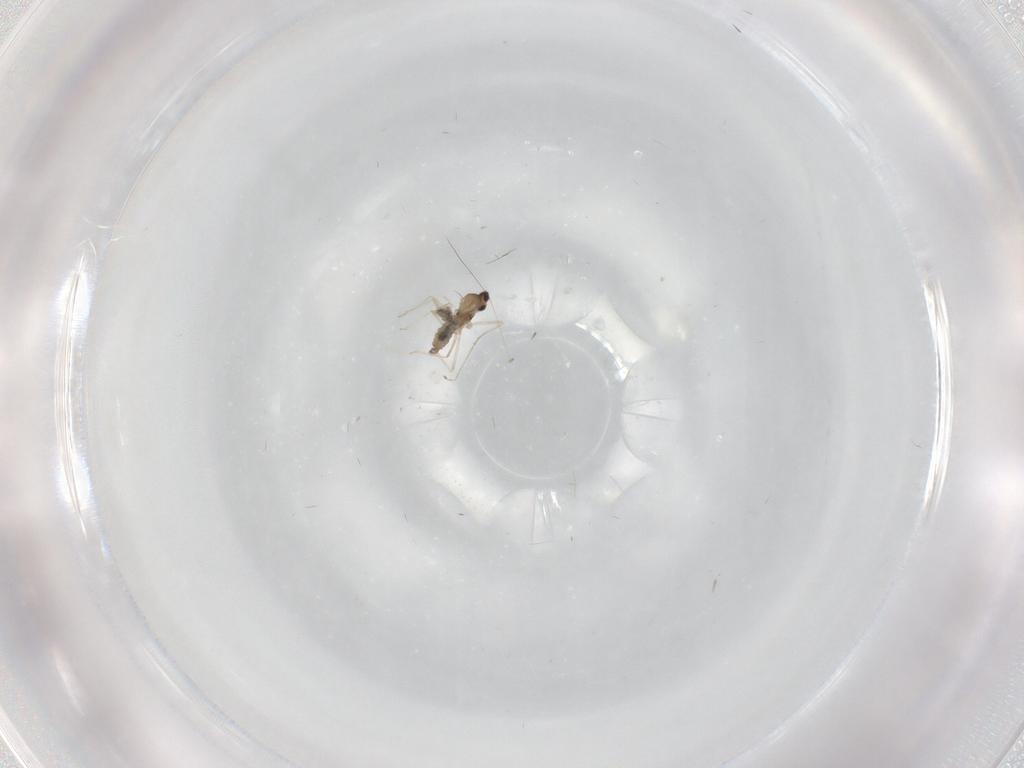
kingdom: Animalia
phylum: Arthropoda
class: Insecta
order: Diptera
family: Cecidomyiidae
